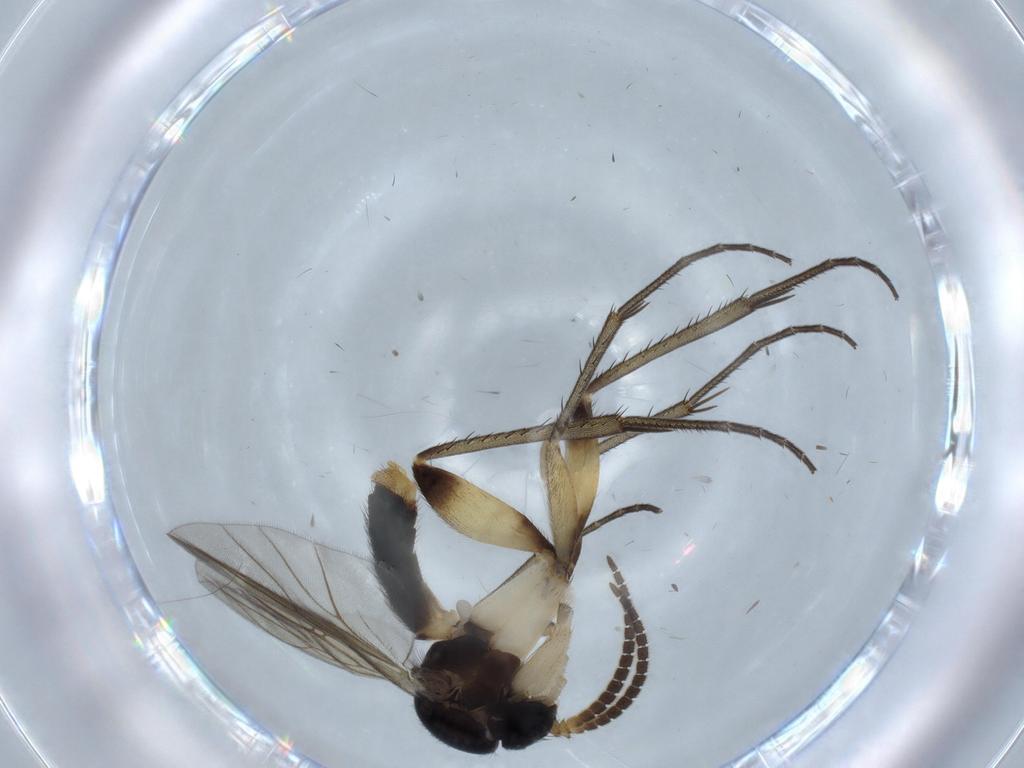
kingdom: Animalia
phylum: Arthropoda
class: Insecta
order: Diptera
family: Sciaridae
